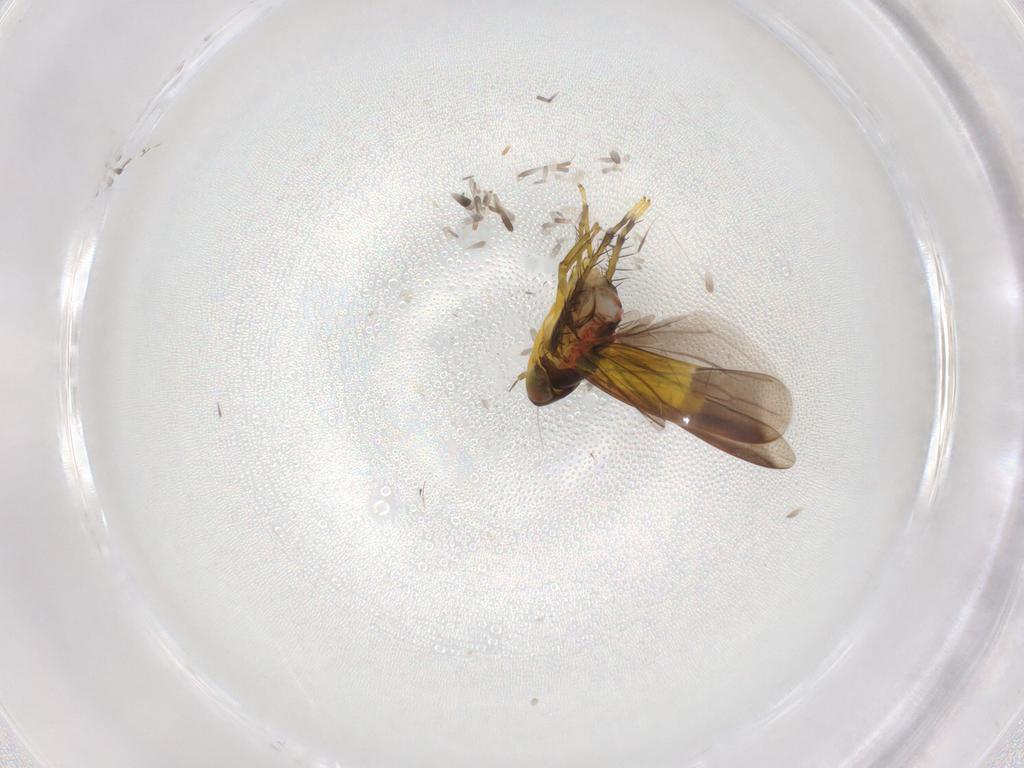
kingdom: Animalia
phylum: Arthropoda
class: Insecta
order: Hemiptera
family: Cicadellidae
